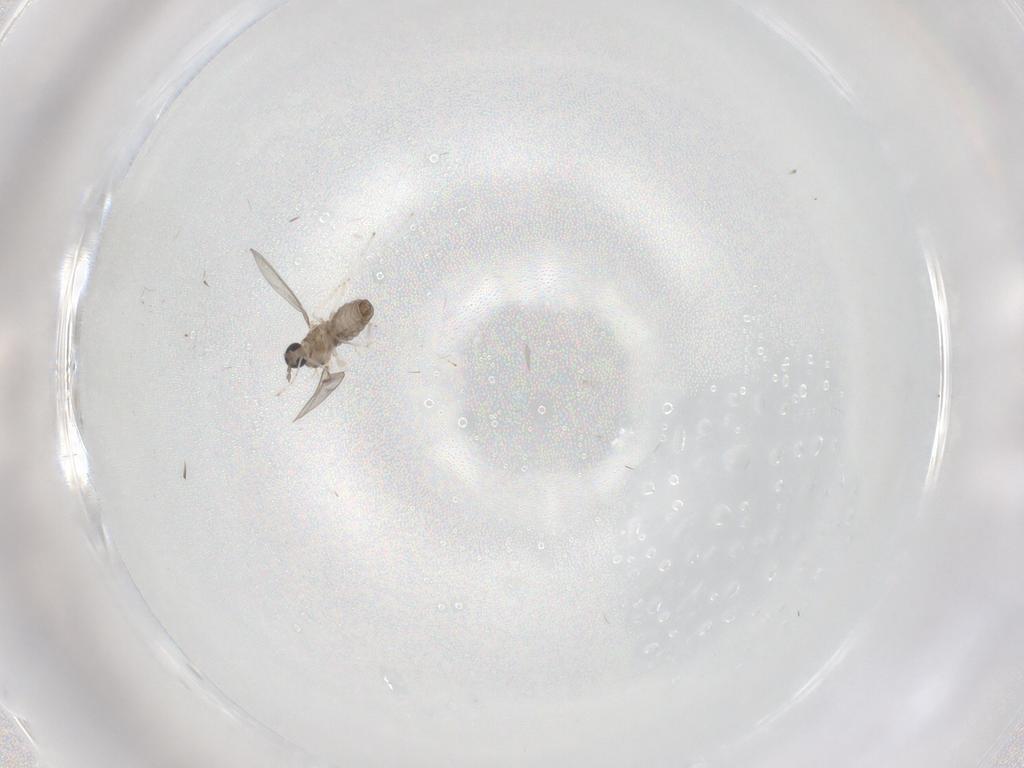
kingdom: Animalia
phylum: Arthropoda
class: Insecta
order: Diptera
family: Cecidomyiidae
